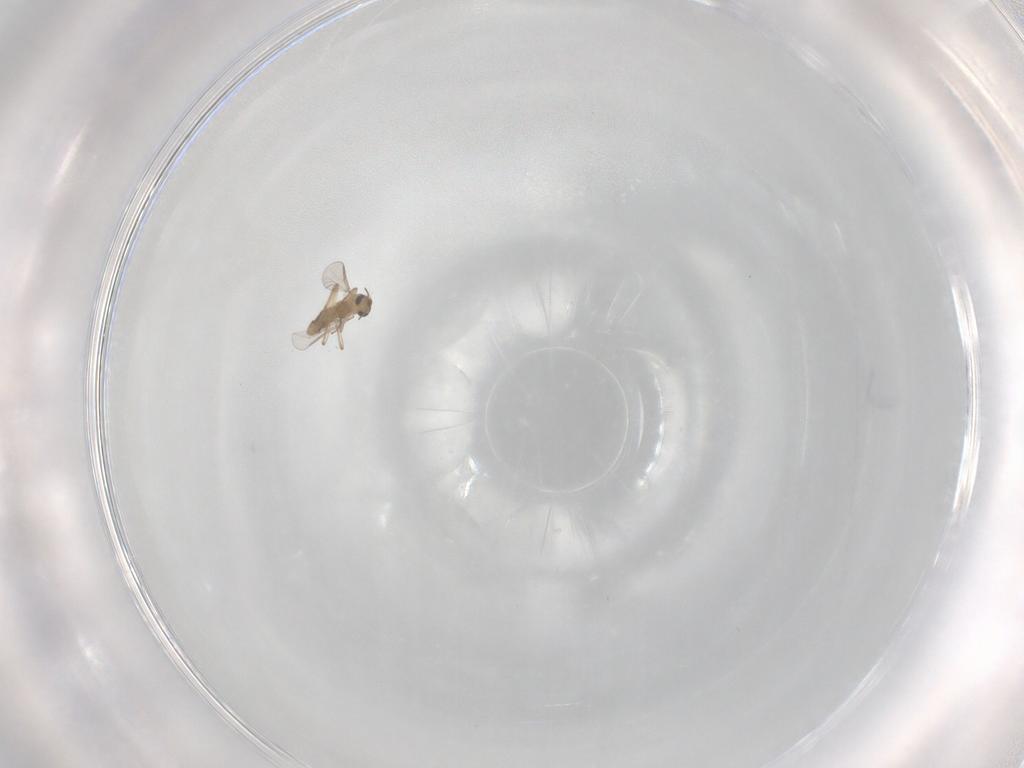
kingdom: Animalia
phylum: Arthropoda
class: Insecta
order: Diptera
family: Chironomidae
